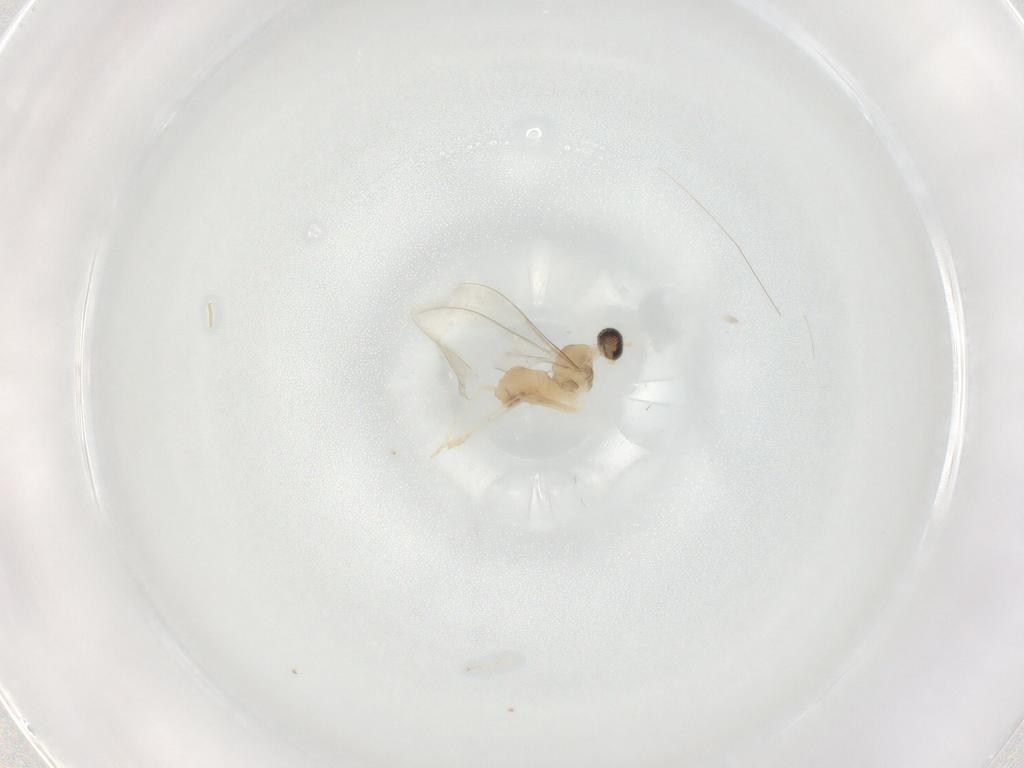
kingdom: Animalia
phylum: Arthropoda
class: Insecta
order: Diptera
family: Cecidomyiidae
